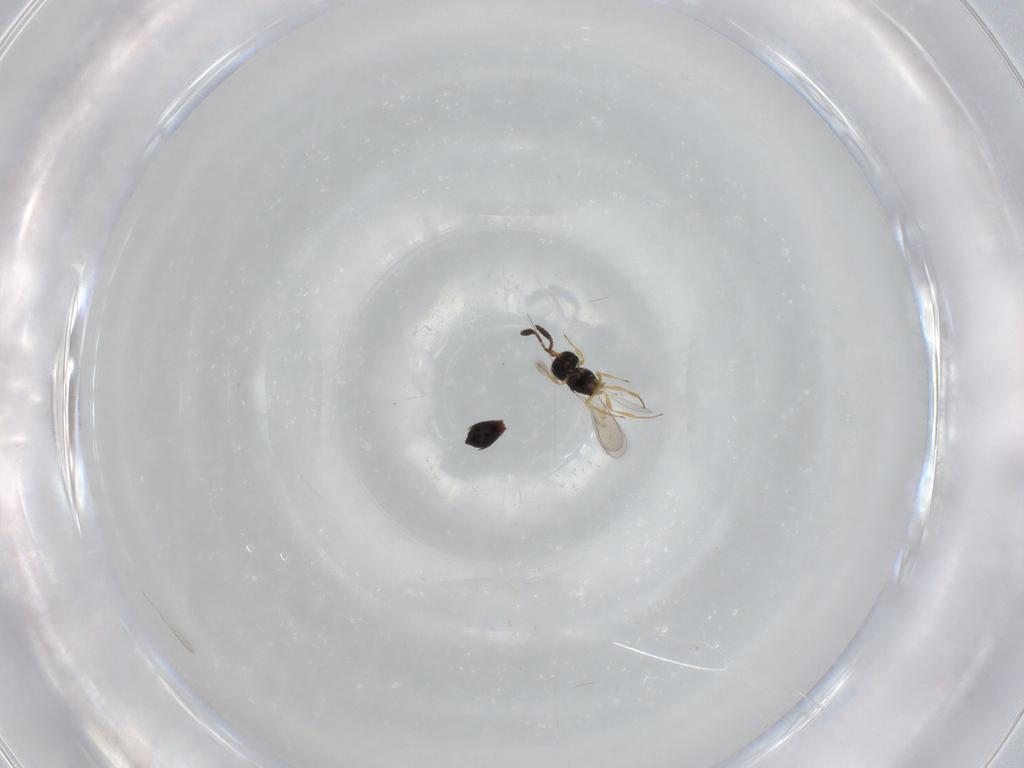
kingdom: Animalia
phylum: Arthropoda
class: Insecta
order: Hymenoptera
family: Scelionidae
